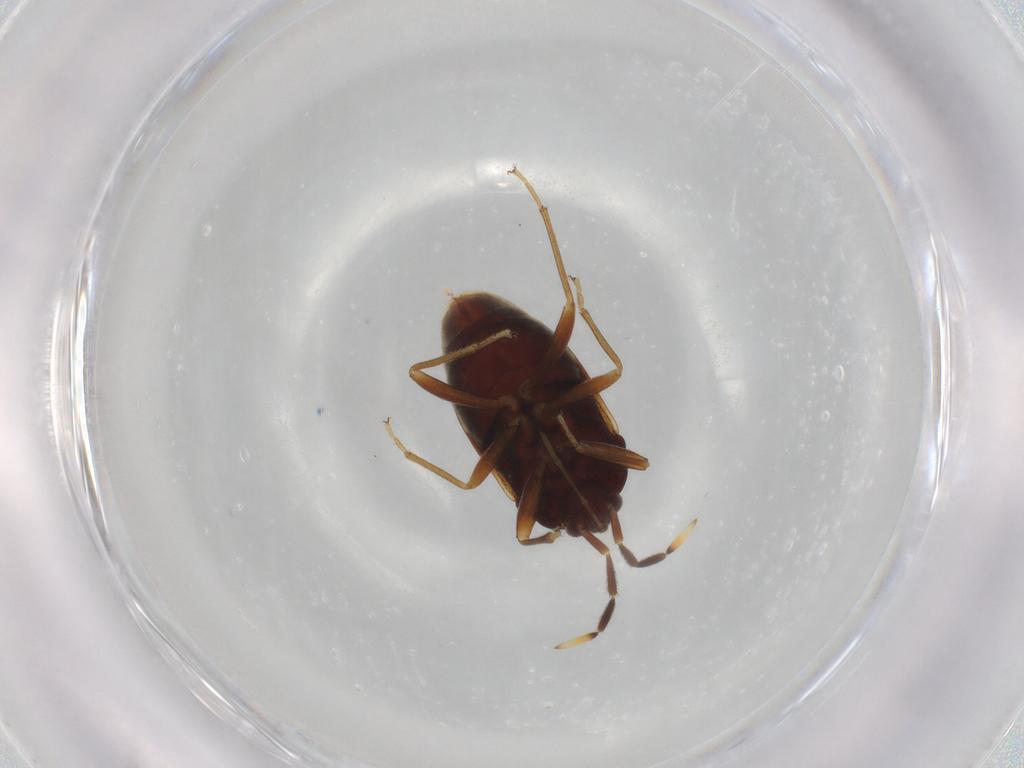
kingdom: Animalia
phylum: Arthropoda
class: Insecta
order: Hemiptera
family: Rhyparochromidae
